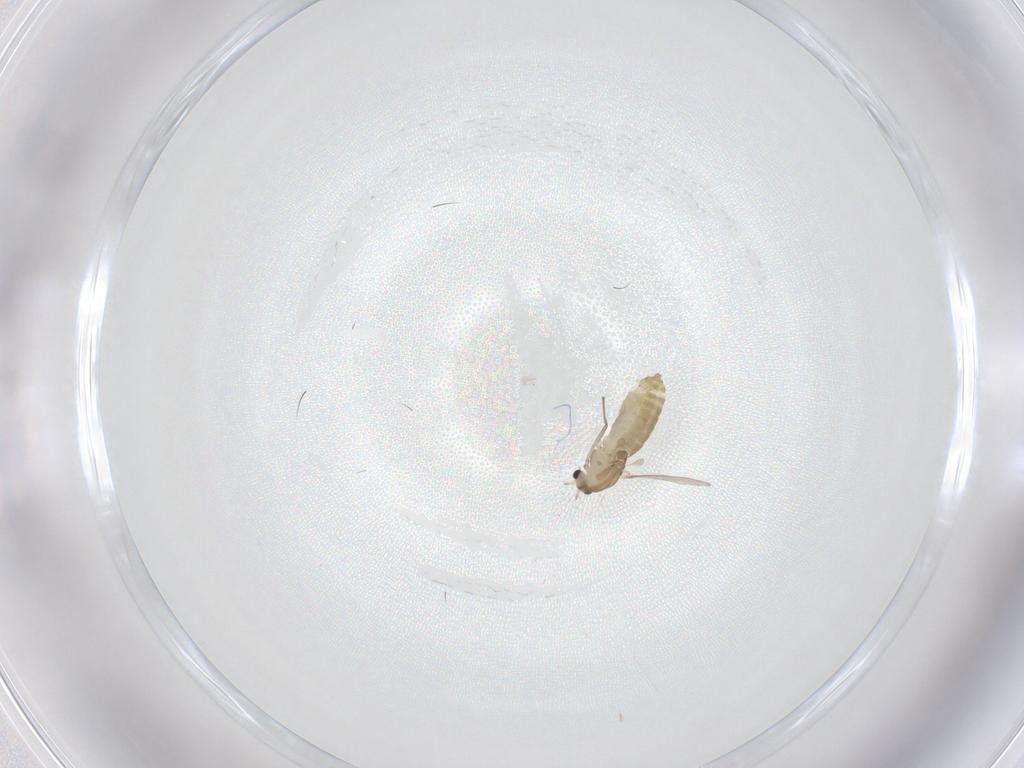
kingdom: Animalia
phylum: Arthropoda
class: Insecta
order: Diptera
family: Chironomidae
